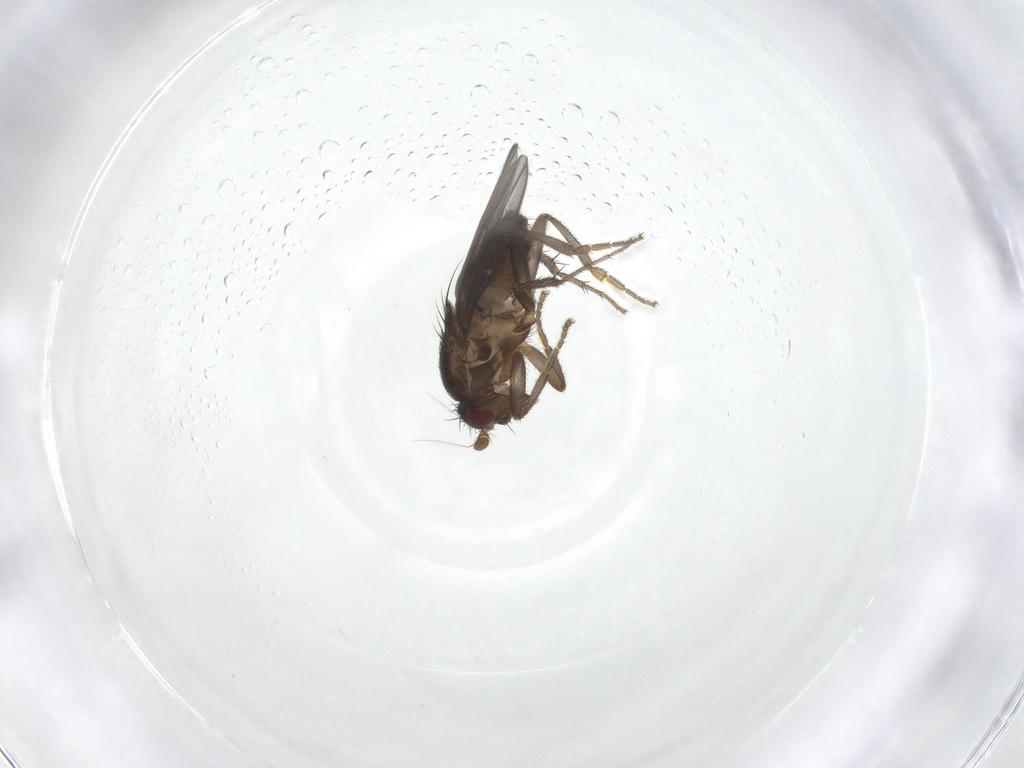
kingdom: Animalia
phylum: Arthropoda
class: Insecta
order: Diptera
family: Sphaeroceridae
